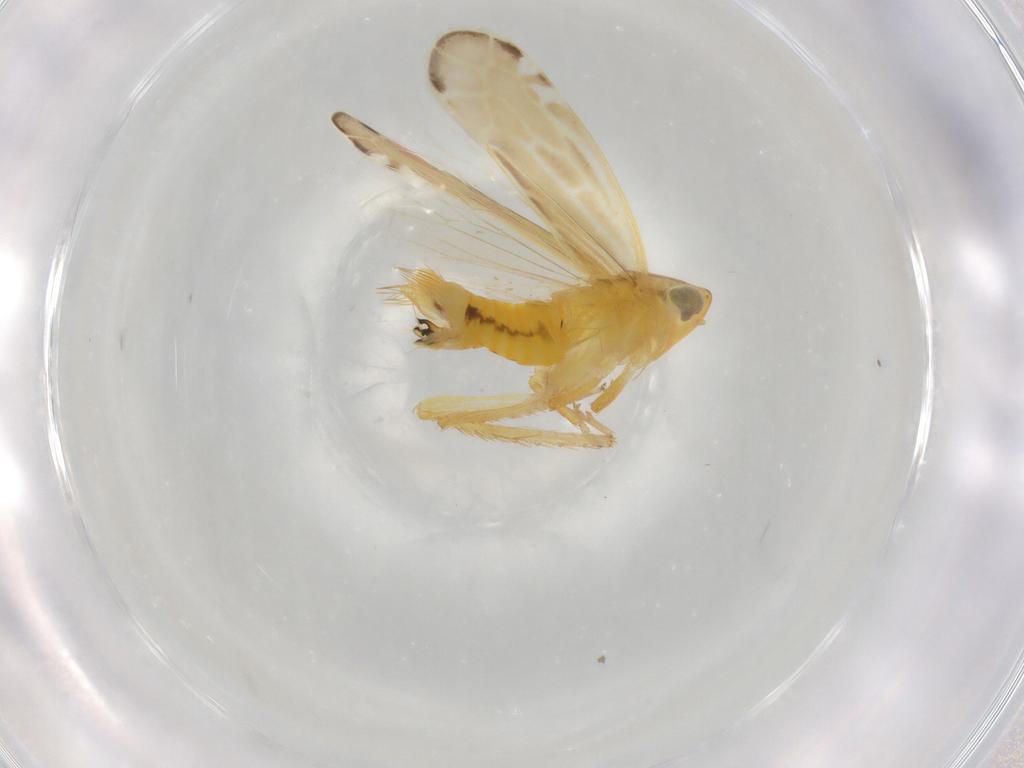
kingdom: Animalia
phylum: Arthropoda
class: Insecta
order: Hemiptera
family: Cicadellidae
